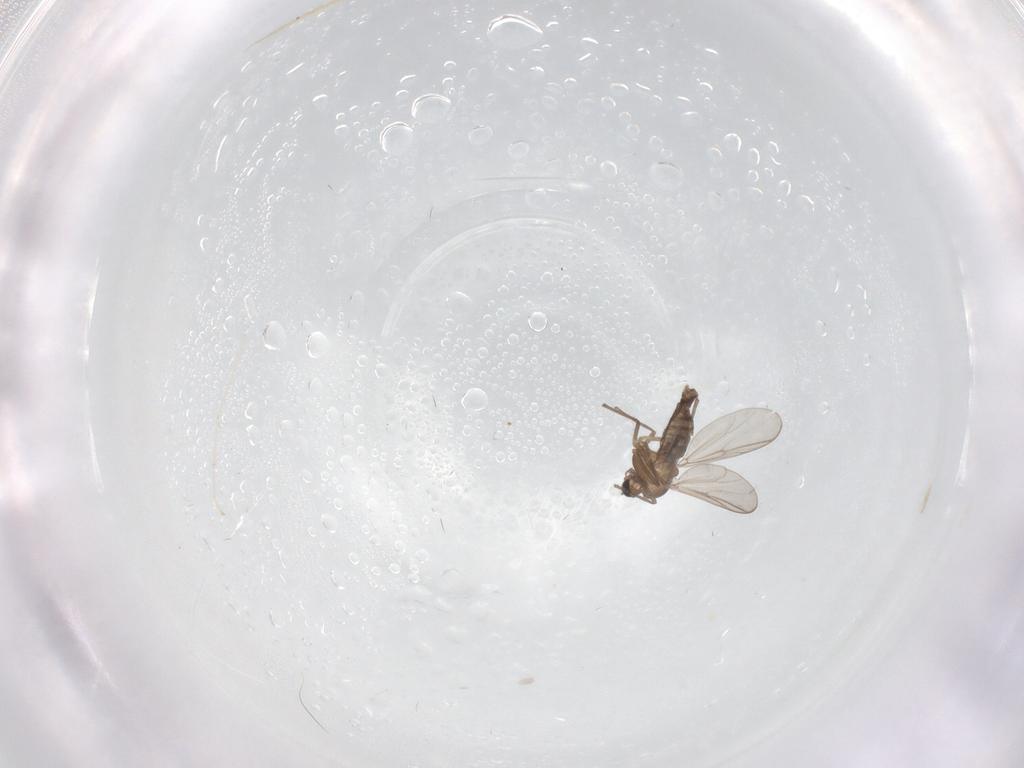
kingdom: Animalia
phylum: Arthropoda
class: Insecta
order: Diptera
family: Chironomidae
